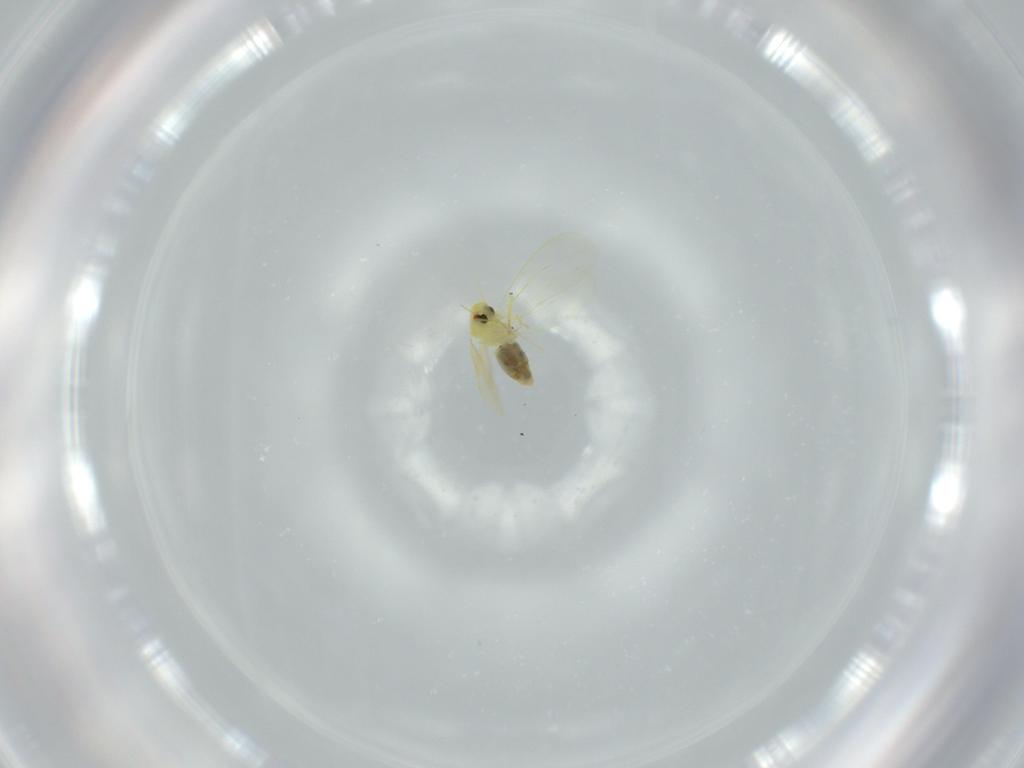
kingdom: Animalia
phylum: Arthropoda
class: Insecta
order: Hemiptera
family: Aleyrodidae
